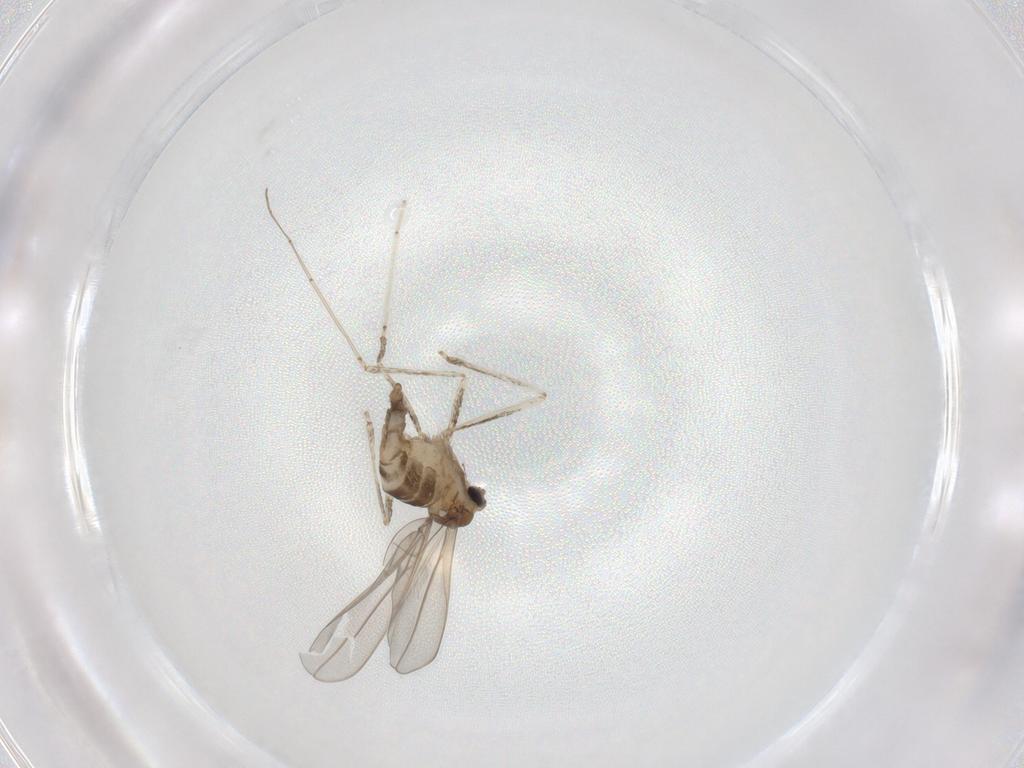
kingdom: Animalia
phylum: Arthropoda
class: Insecta
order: Diptera
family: Cecidomyiidae
